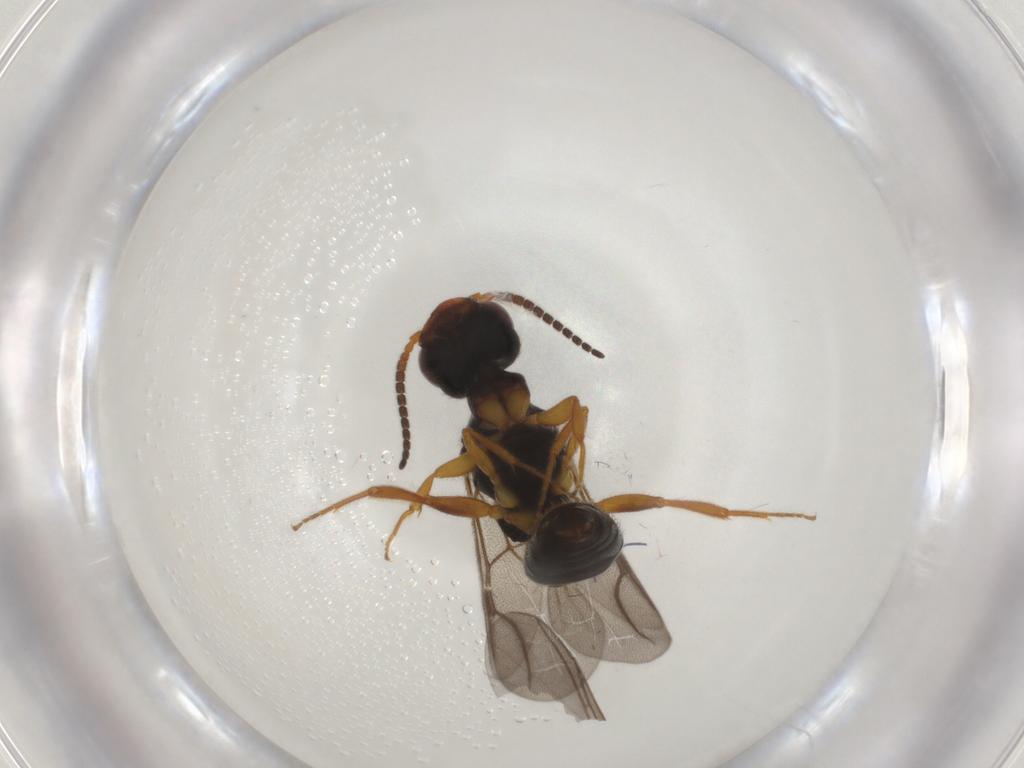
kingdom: Animalia
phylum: Arthropoda
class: Insecta
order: Hymenoptera
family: Bethylidae
